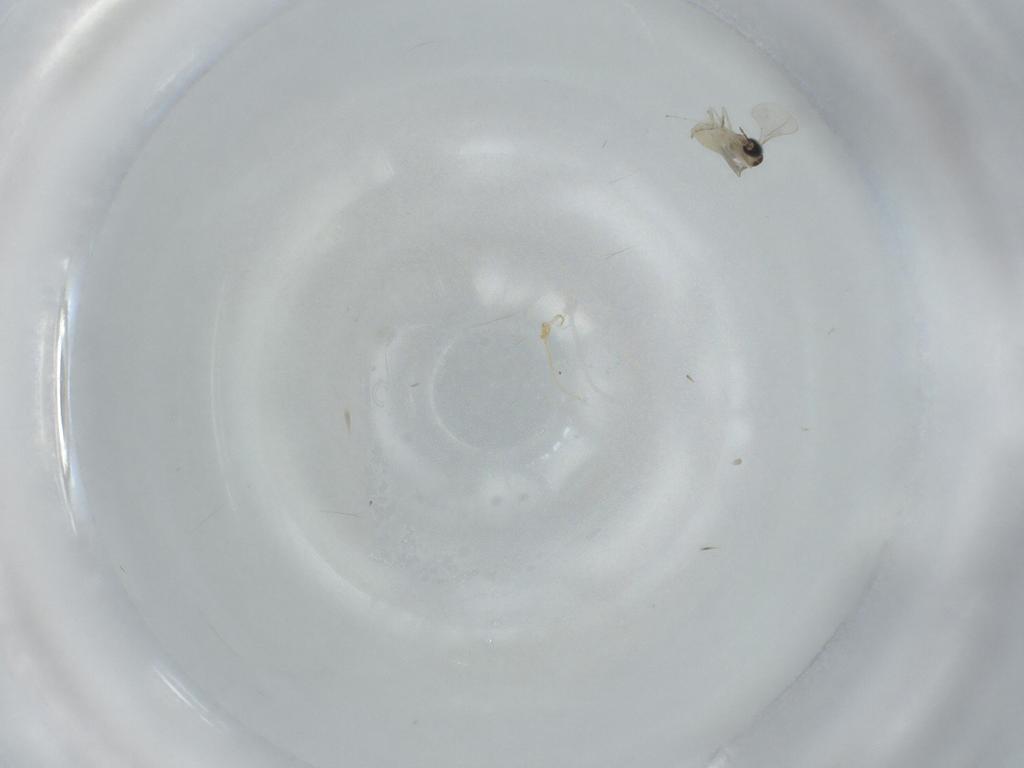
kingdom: Animalia
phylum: Arthropoda
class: Insecta
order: Diptera
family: Cecidomyiidae
